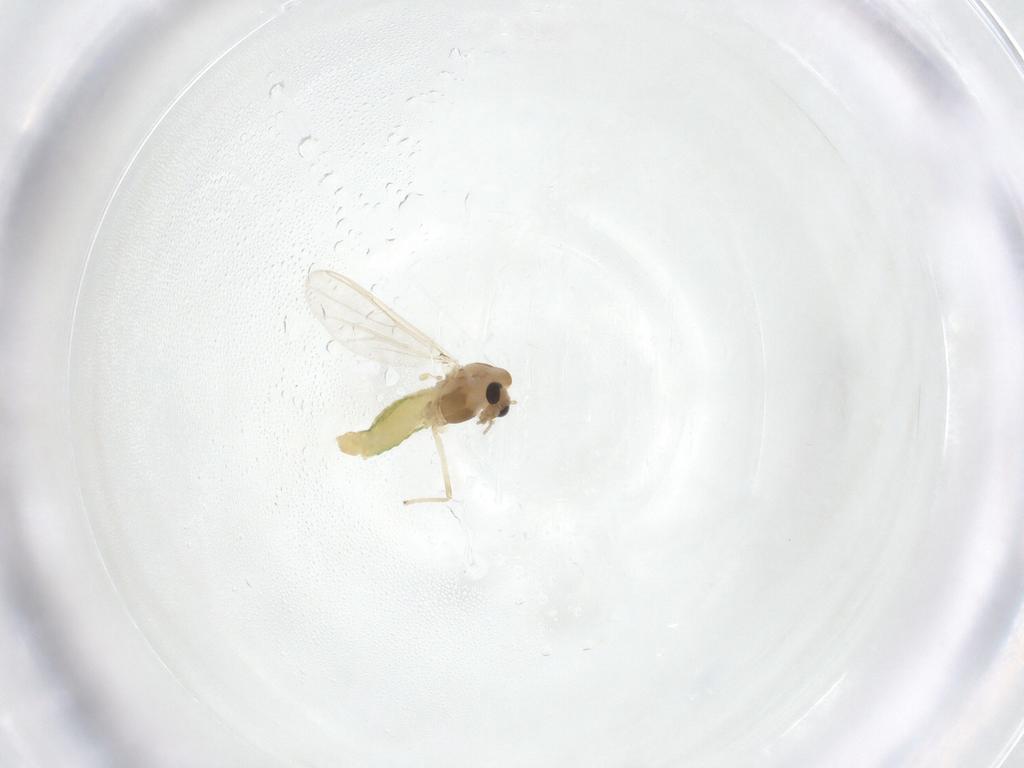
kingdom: Animalia
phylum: Arthropoda
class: Insecta
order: Diptera
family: Chironomidae
